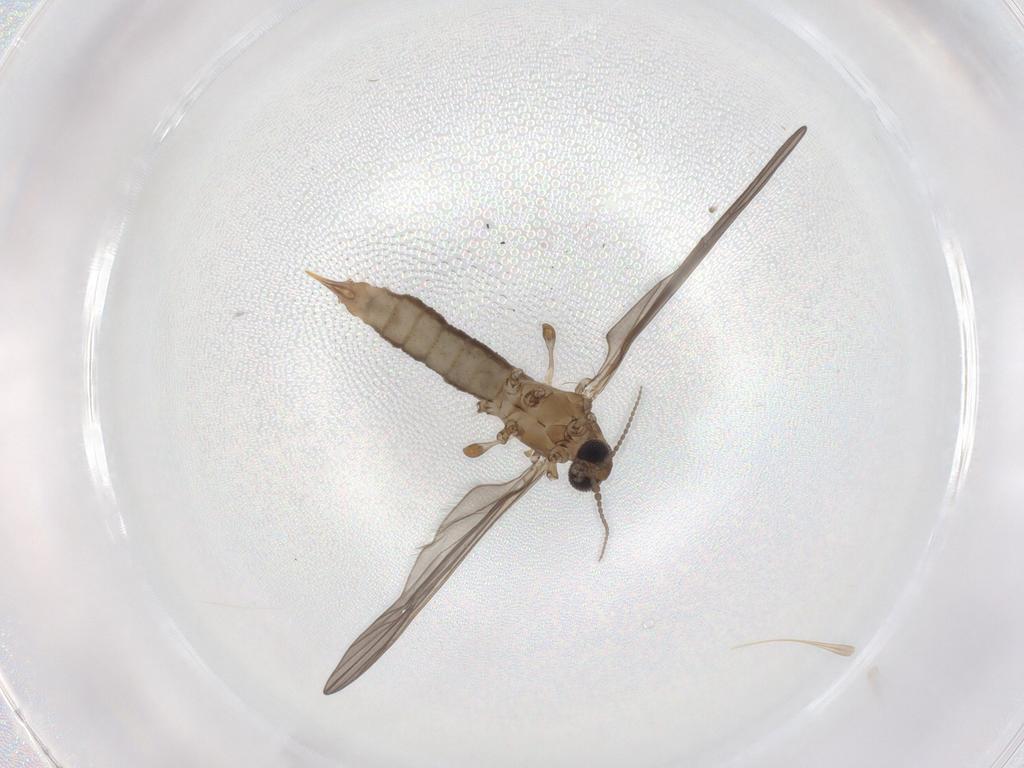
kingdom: Animalia
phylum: Arthropoda
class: Insecta
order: Diptera
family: Limoniidae
